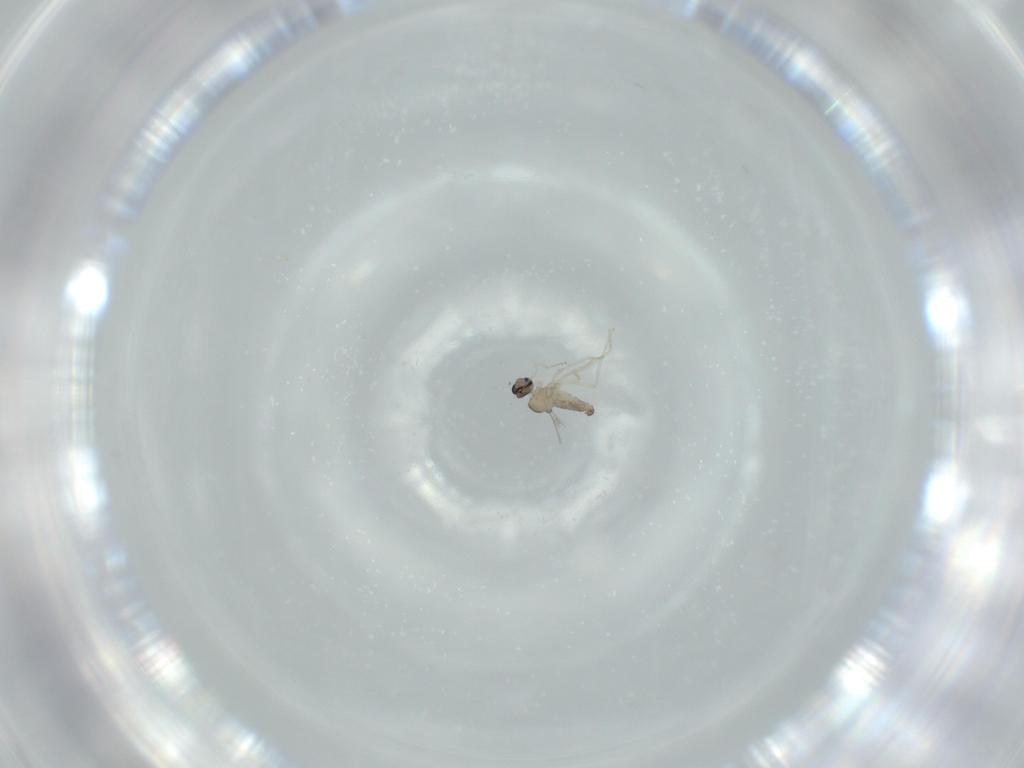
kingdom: Animalia
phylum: Arthropoda
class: Insecta
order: Diptera
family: Cecidomyiidae
